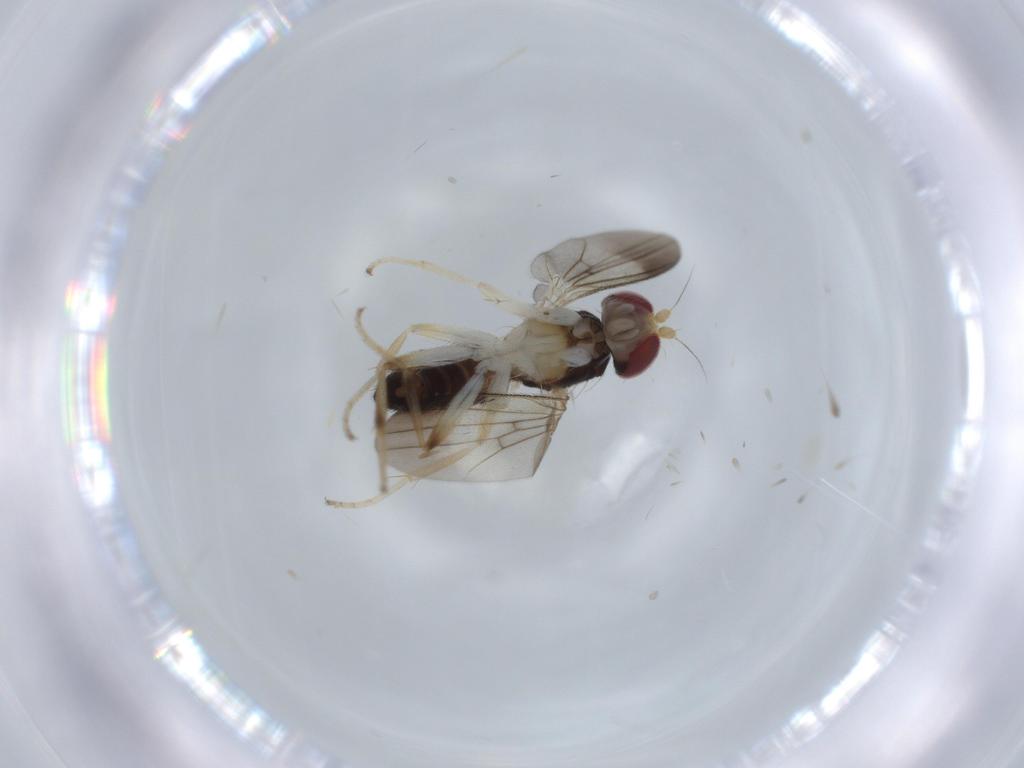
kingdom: Animalia
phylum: Arthropoda
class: Insecta
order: Diptera
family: Clusiidae
